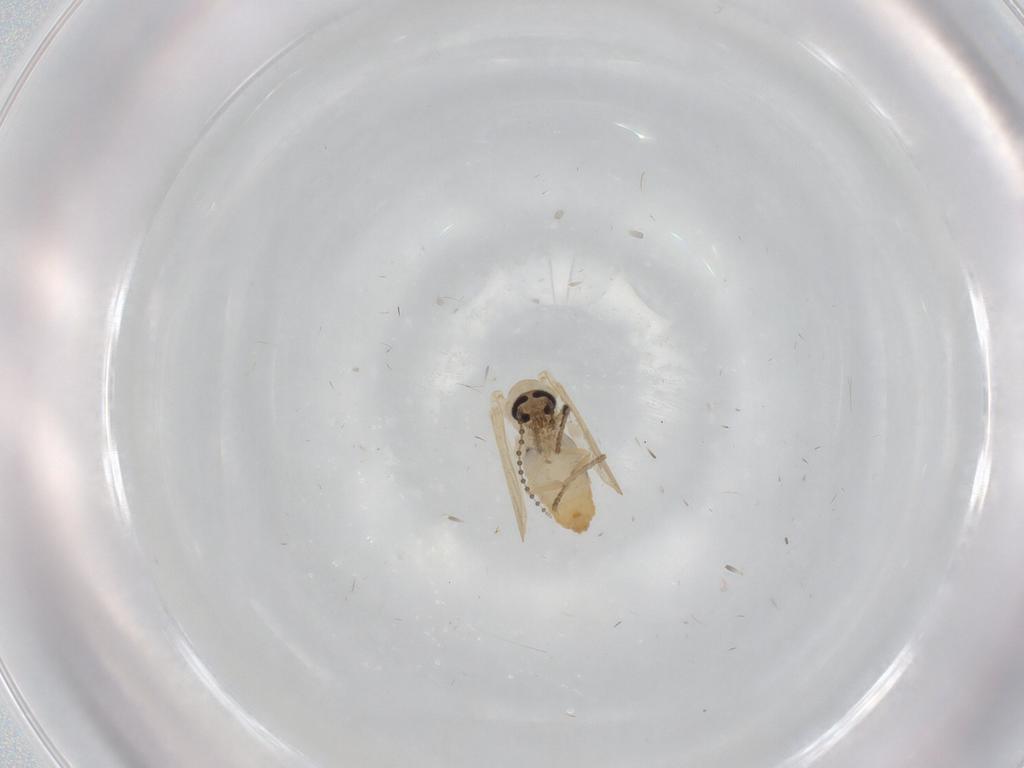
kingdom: Animalia
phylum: Arthropoda
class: Insecta
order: Diptera
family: Psychodidae
